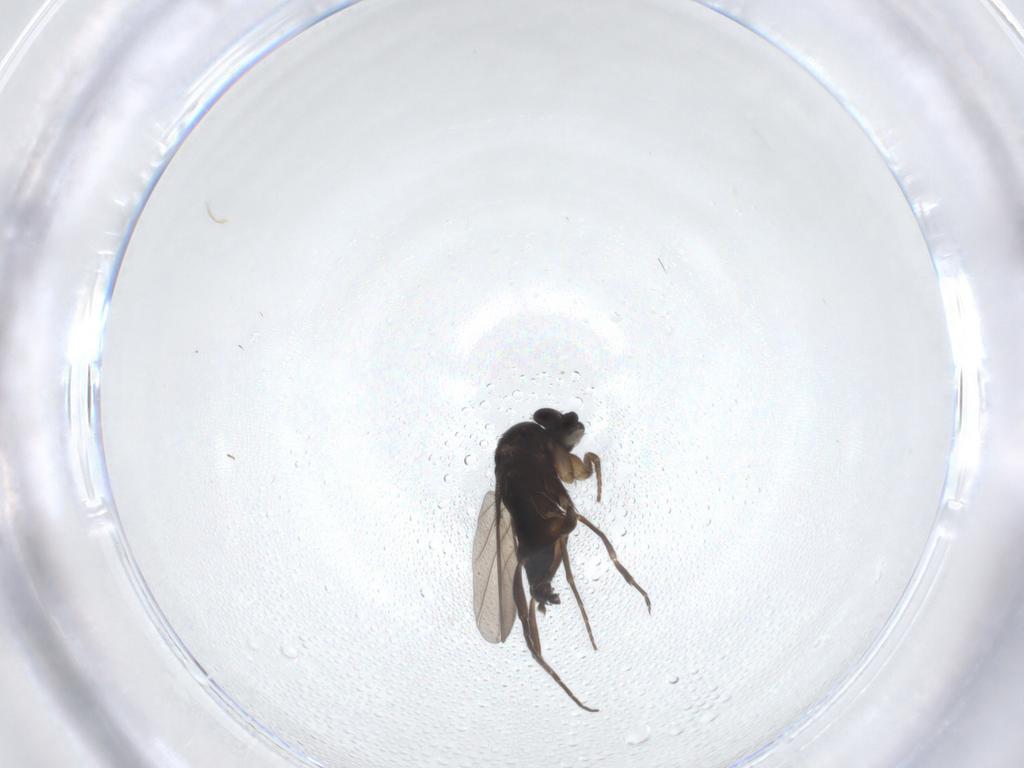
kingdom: Animalia
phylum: Arthropoda
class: Insecta
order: Diptera
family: Phoridae
